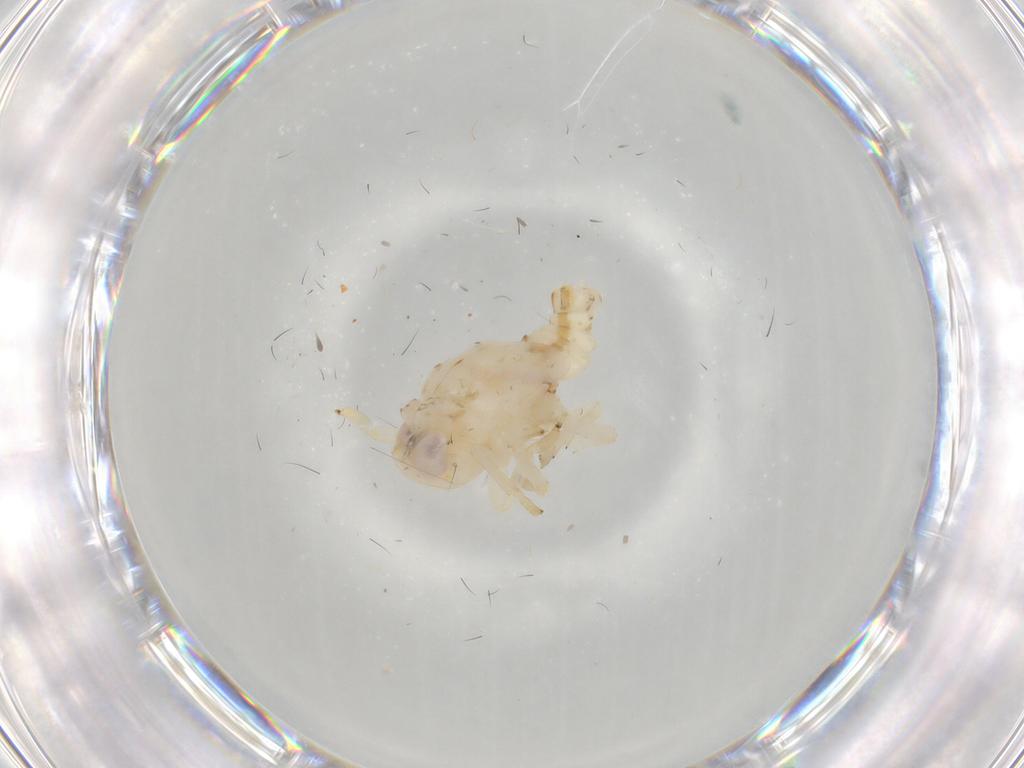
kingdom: Animalia
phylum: Arthropoda
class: Insecta
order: Hemiptera
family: Nogodinidae
